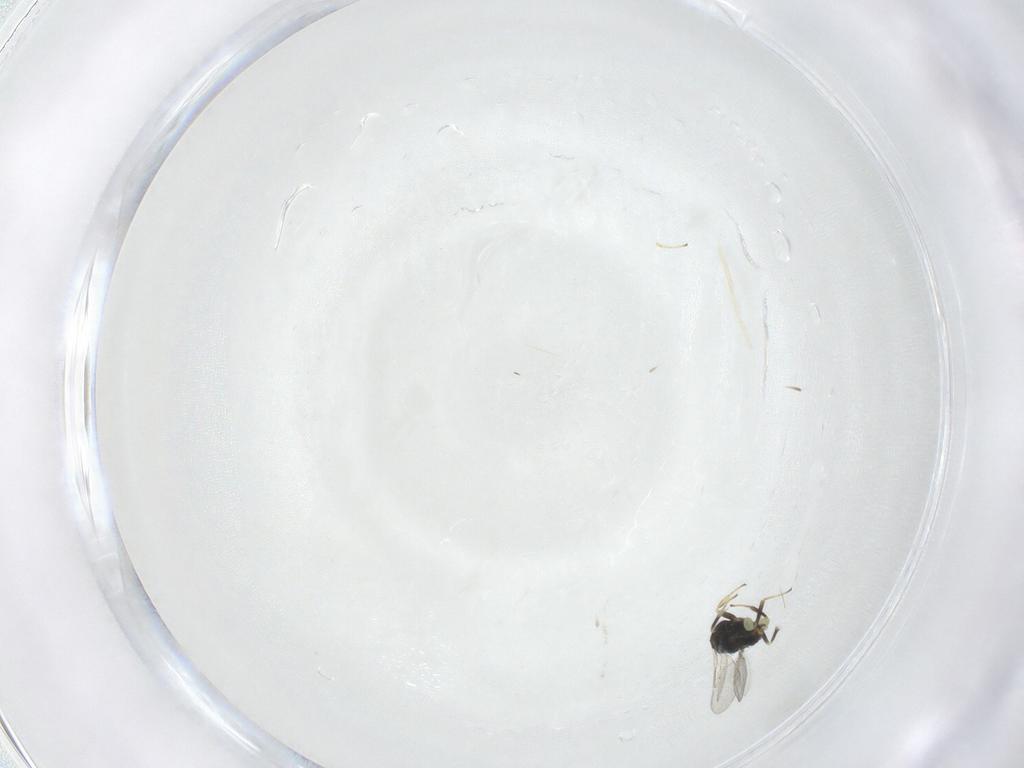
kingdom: Animalia
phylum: Arthropoda
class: Insecta
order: Hymenoptera
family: Aphelinidae
